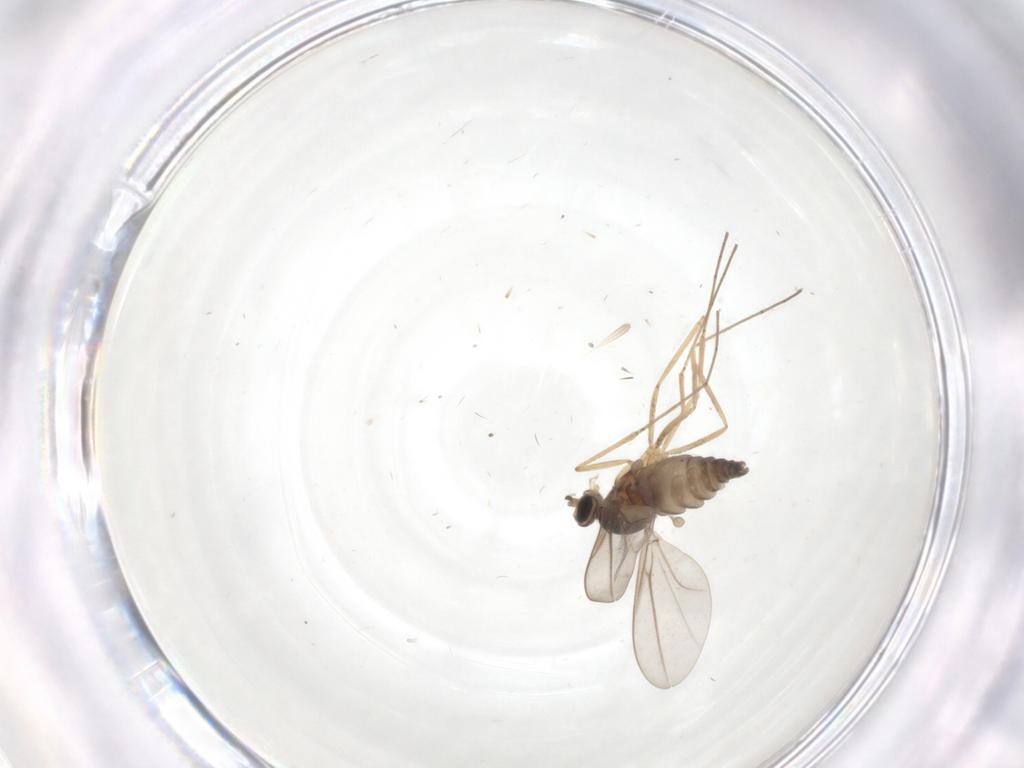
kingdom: Animalia
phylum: Arthropoda
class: Insecta
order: Diptera
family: Cecidomyiidae
